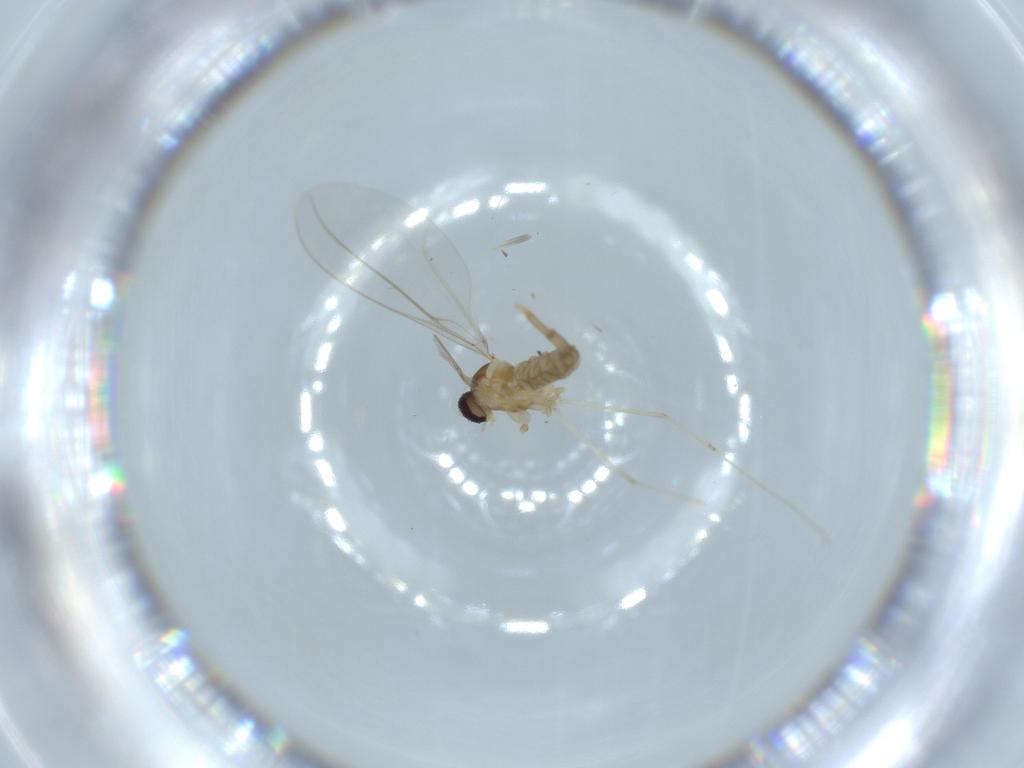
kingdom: Animalia
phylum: Arthropoda
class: Insecta
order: Diptera
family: Cecidomyiidae
